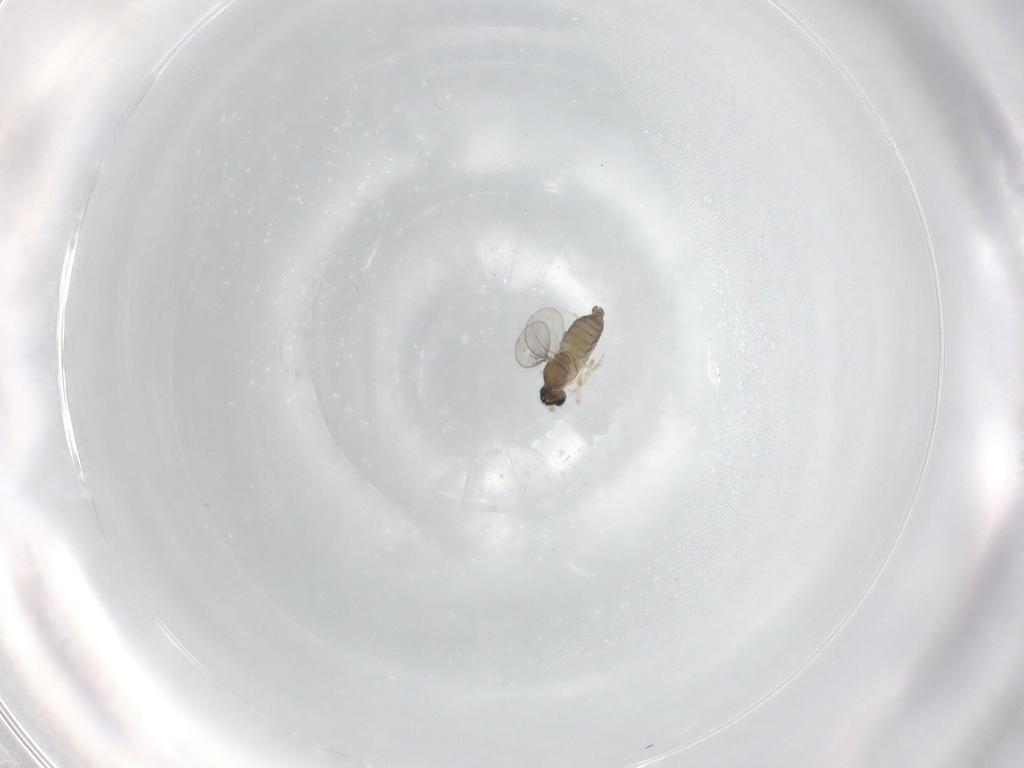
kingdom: Animalia
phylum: Arthropoda
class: Insecta
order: Diptera
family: Cecidomyiidae
